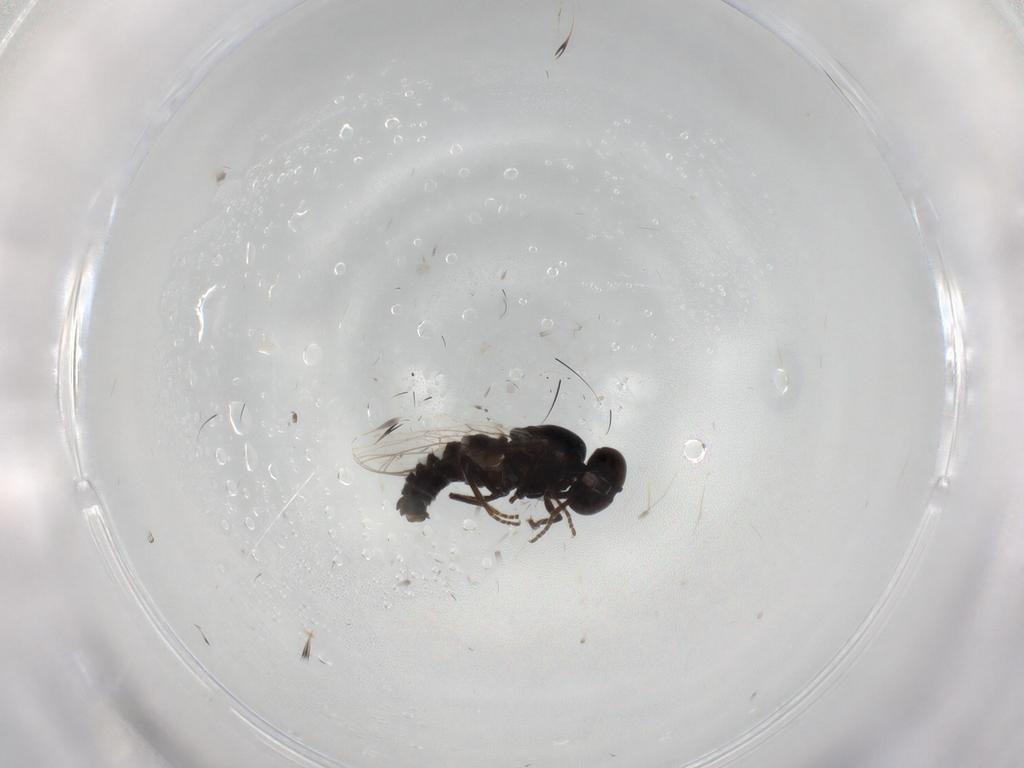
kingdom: Animalia
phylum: Arthropoda
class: Insecta
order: Diptera
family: Scenopinidae
